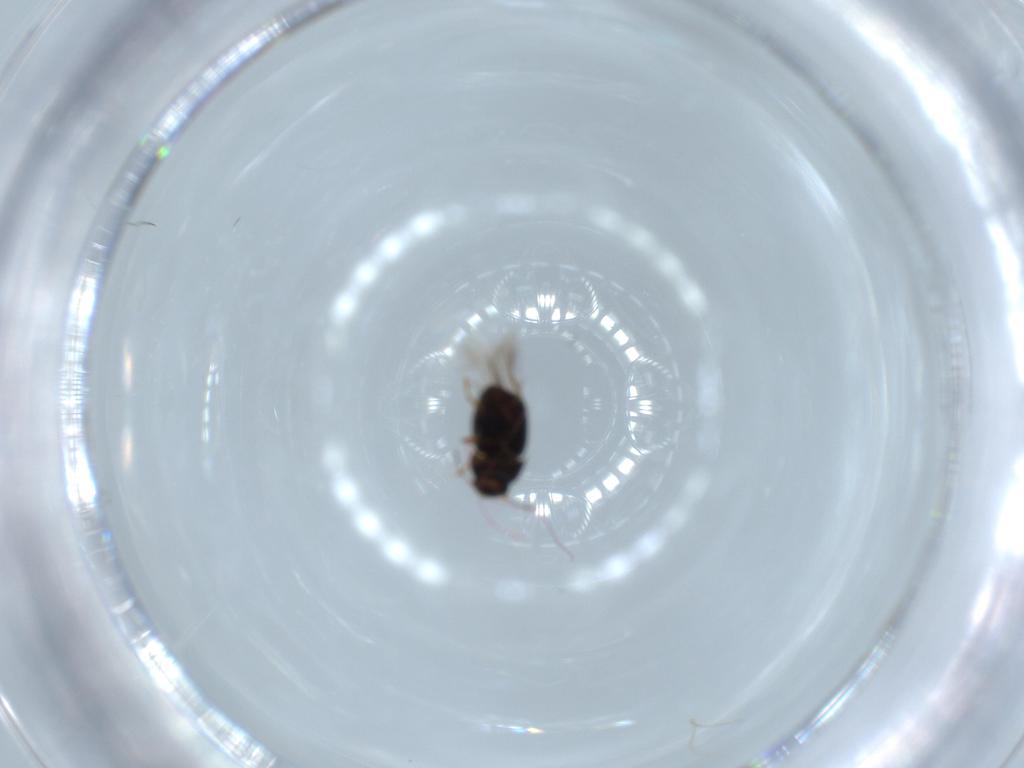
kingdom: Animalia
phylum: Arthropoda
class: Insecta
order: Coleoptera
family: Ptiliidae
